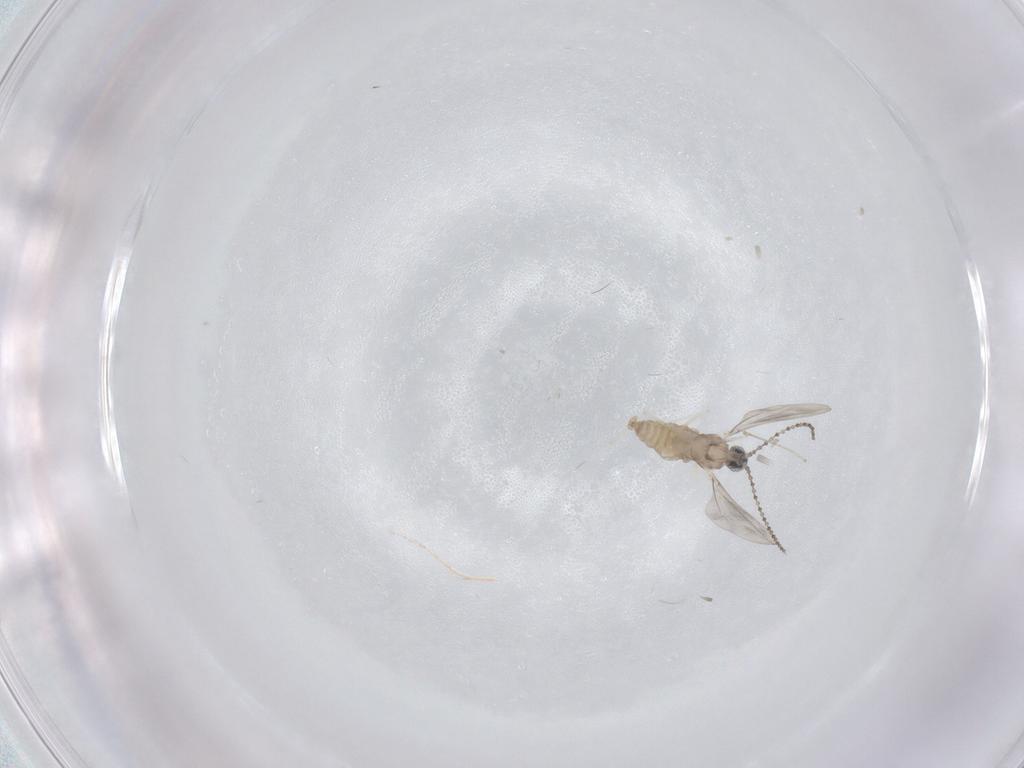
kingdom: Animalia
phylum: Arthropoda
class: Insecta
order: Diptera
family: Cecidomyiidae
